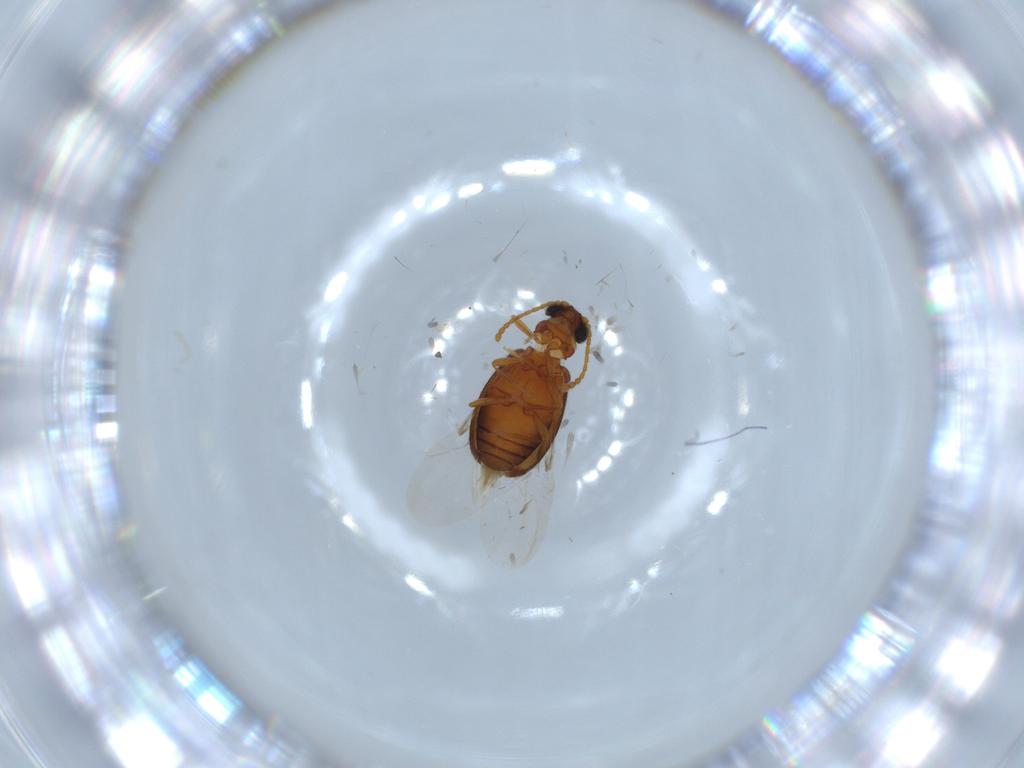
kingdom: Animalia
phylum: Arthropoda
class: Insecta
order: Coleoptera
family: Aderidae
